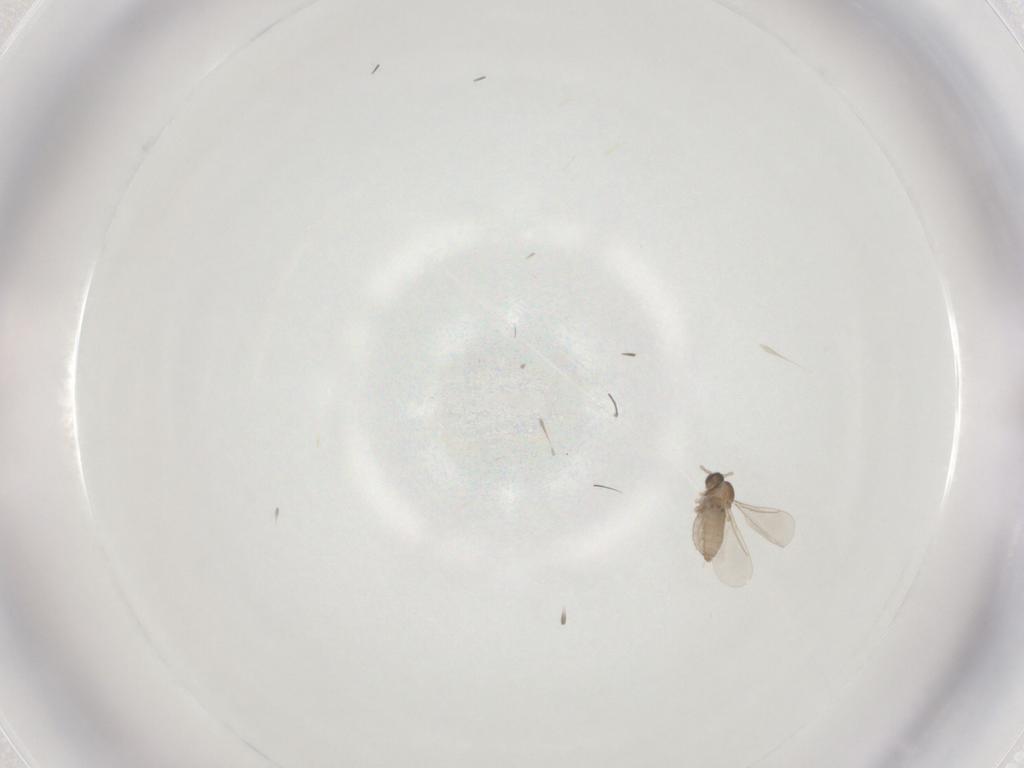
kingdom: Animalia
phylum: Arthropoda
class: Insecta
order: Diptera
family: Cecidomyiidae
